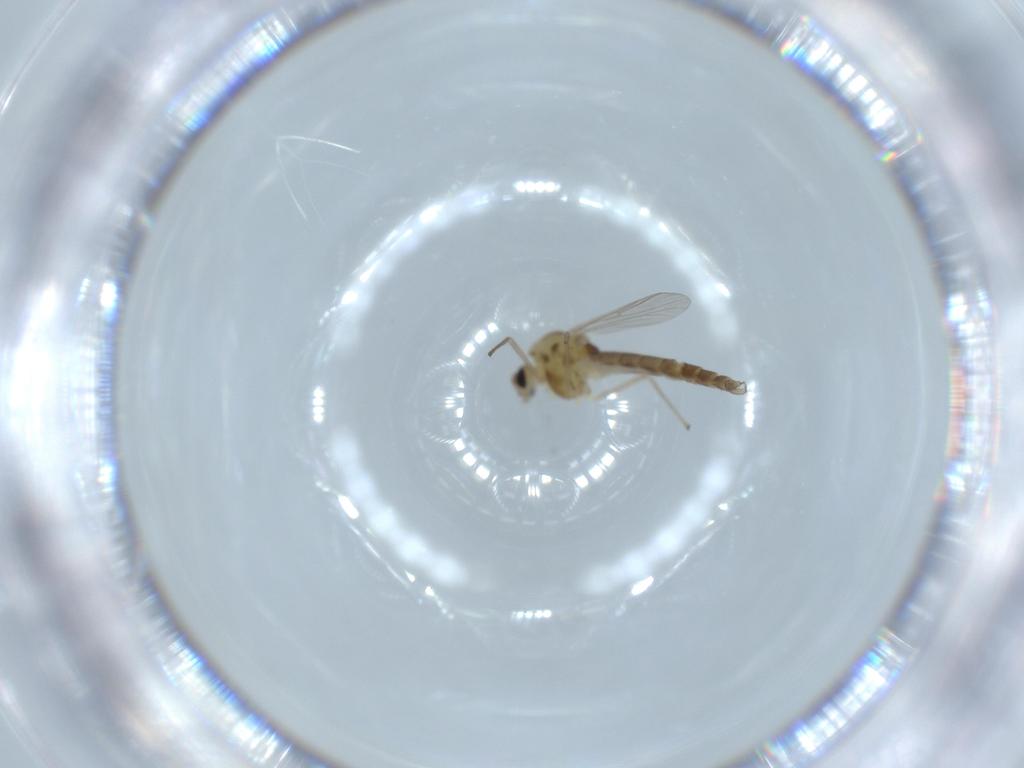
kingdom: Animalia
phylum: Arthropoda
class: Insecta
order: Diptera
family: Chironomidae
